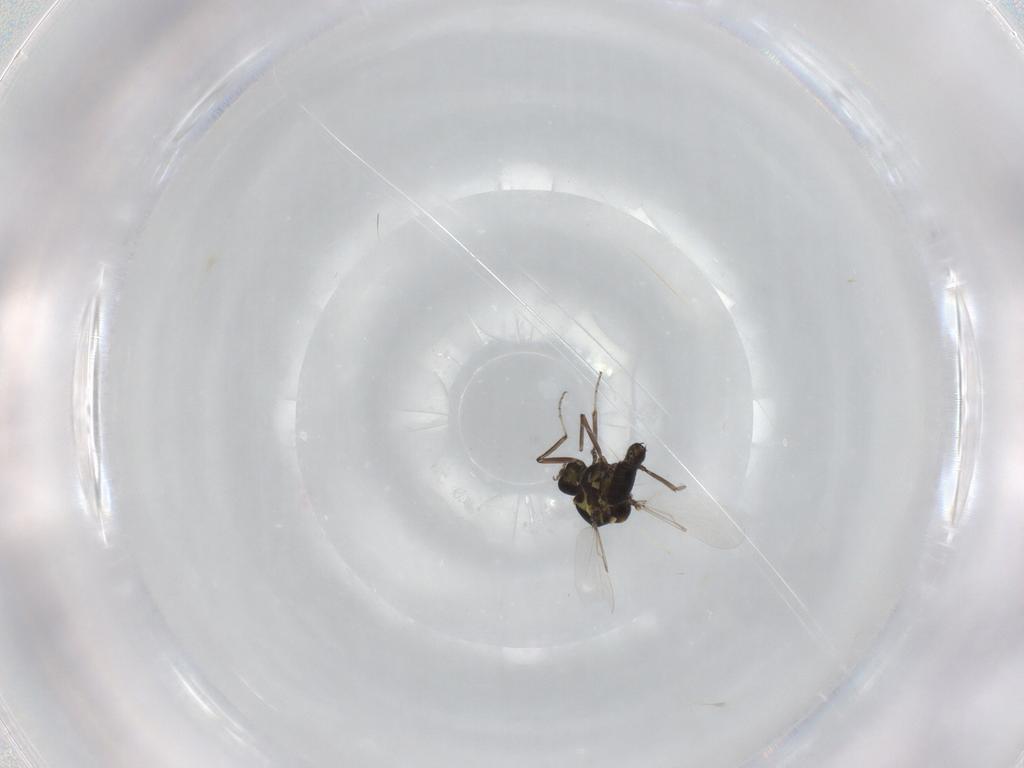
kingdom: Animalia
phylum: Arthropoda
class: Insecta
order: Diptera
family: Ceratopogonidae
